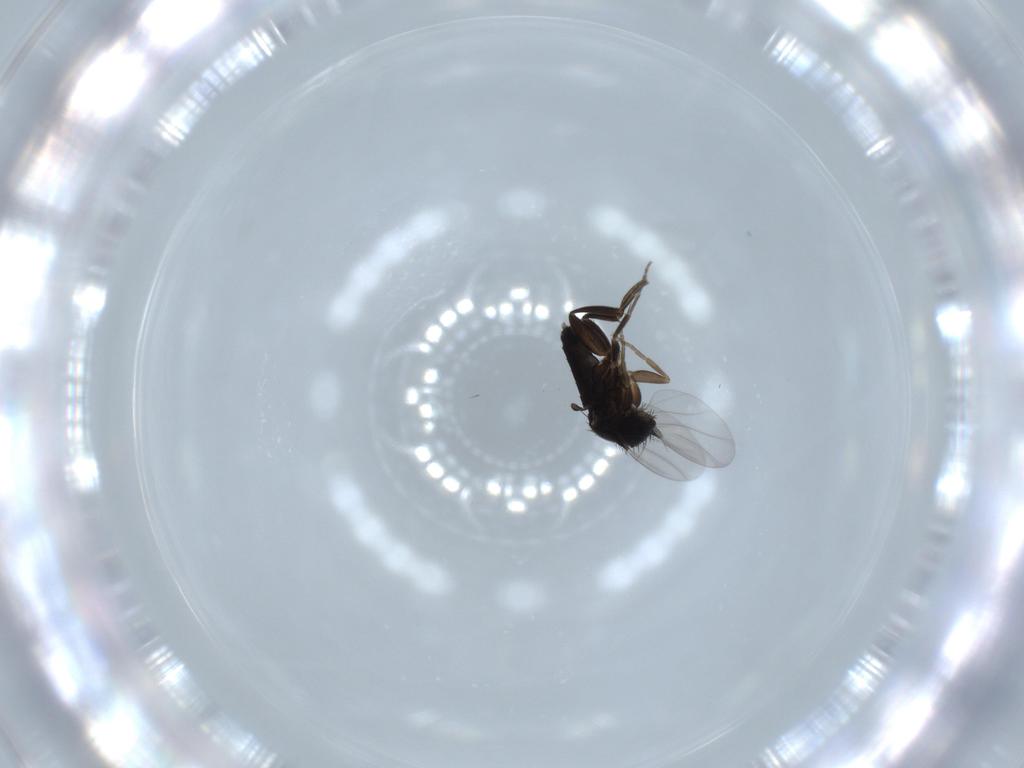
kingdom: Animalia
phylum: Arthropoda
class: Insecta
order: Diptera
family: Phoridae
